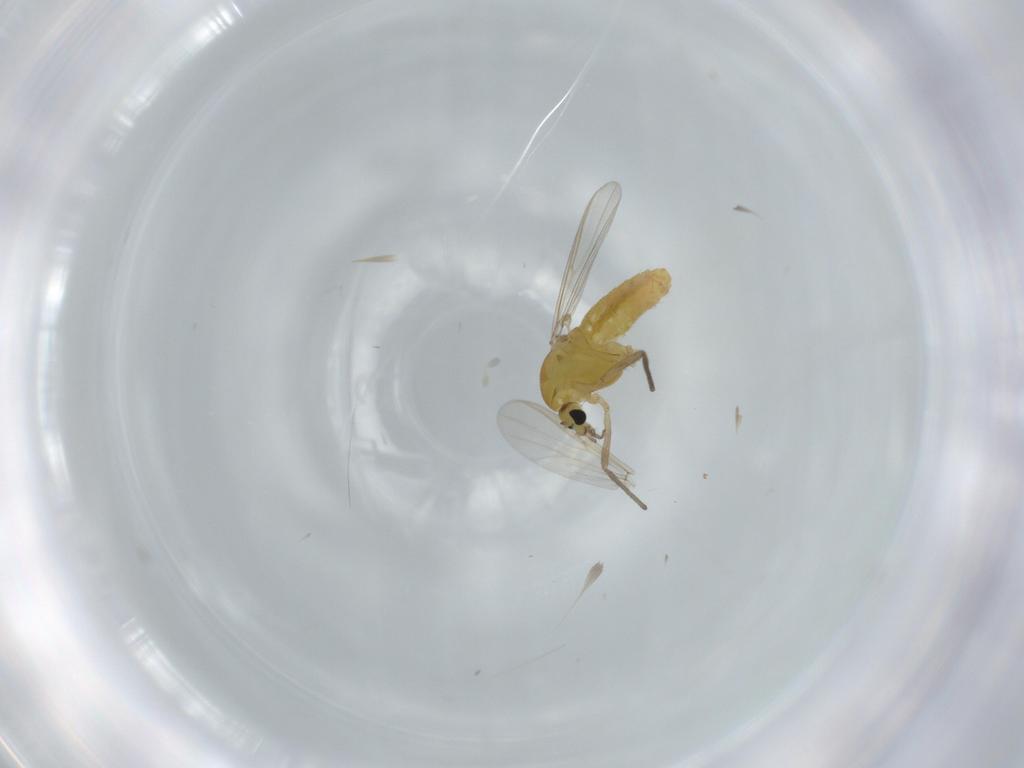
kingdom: Animalia
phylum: Arthropoda
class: Insecta
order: Diptera
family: Chironomidae
